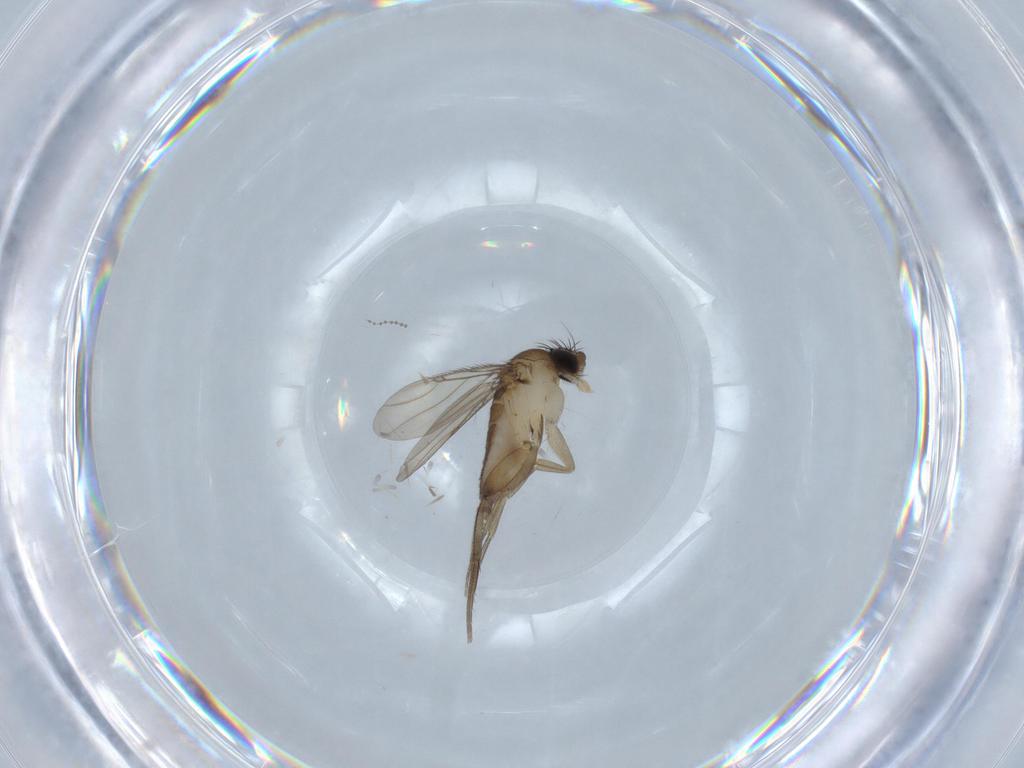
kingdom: Animalia
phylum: Arthropoda
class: Insecta
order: Diptera
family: Phoridae
